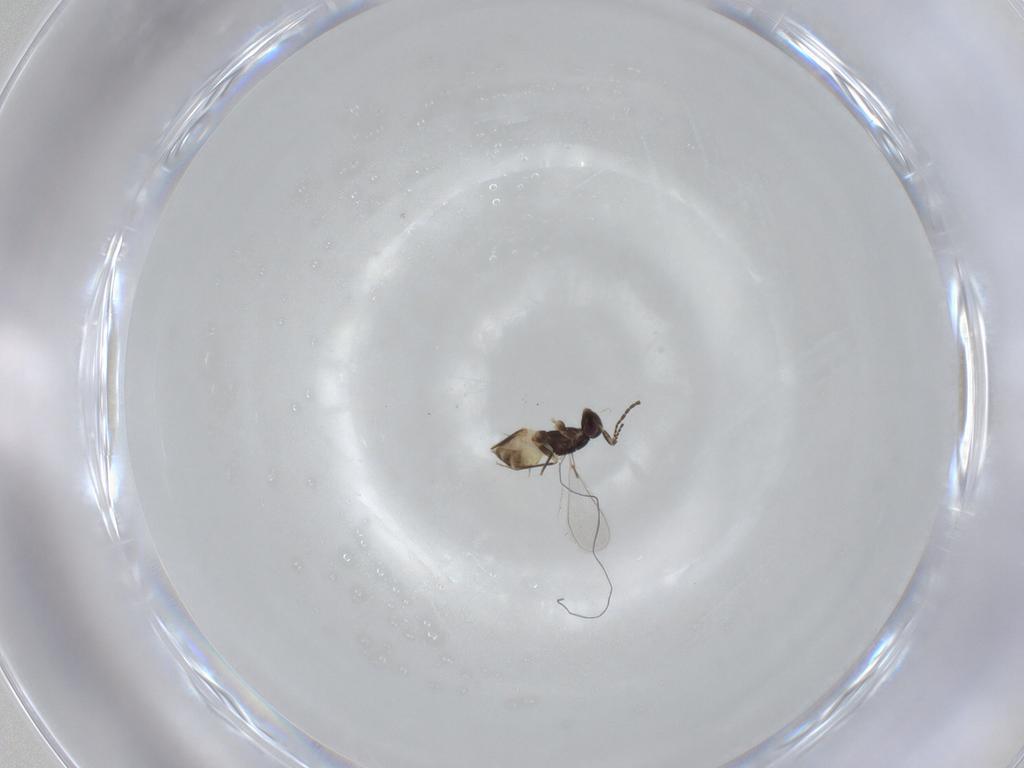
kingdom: Animalia
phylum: Arthropoda
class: Insecta
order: Hymenoptera
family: Mymaridae
